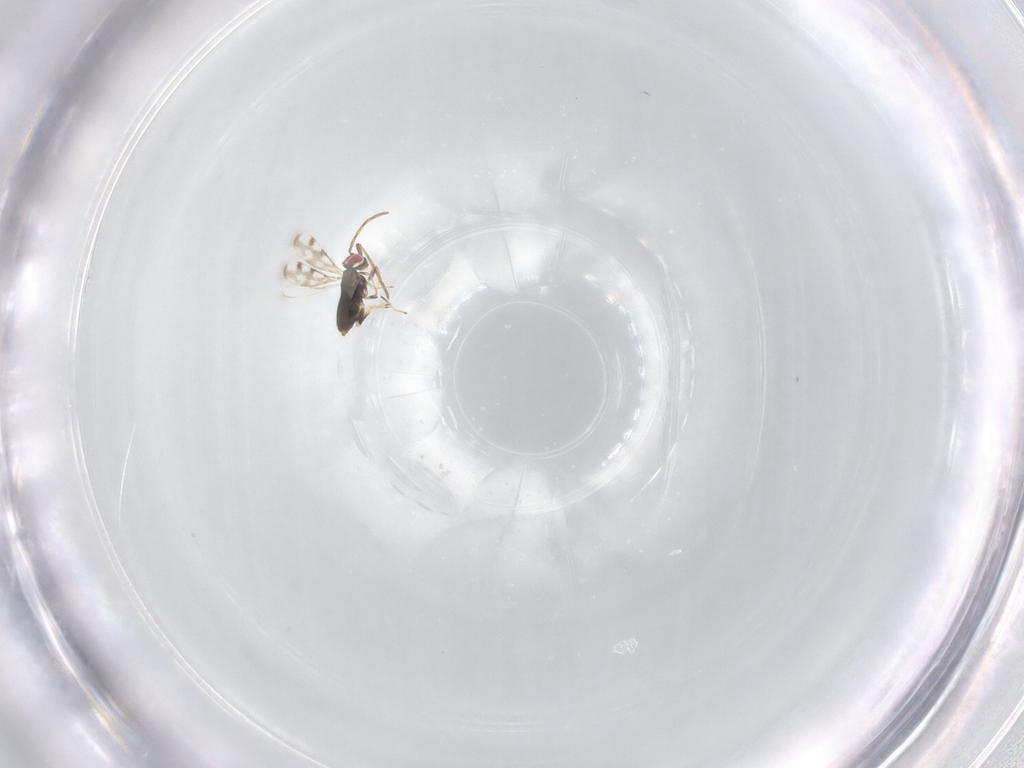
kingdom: Animalia
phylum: Arthropoda
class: Insecta
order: Hymenoptera
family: Azotidae
